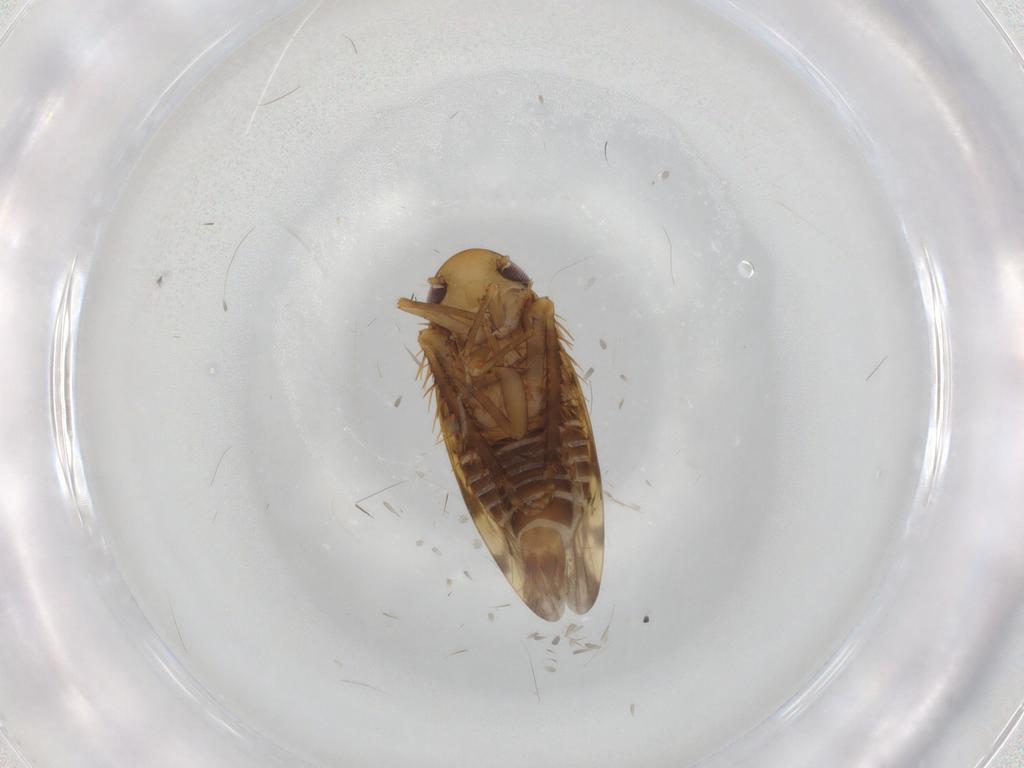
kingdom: Animalia
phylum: Arthropoda
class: Insecta
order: Hemiptera
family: Cicadellidae
